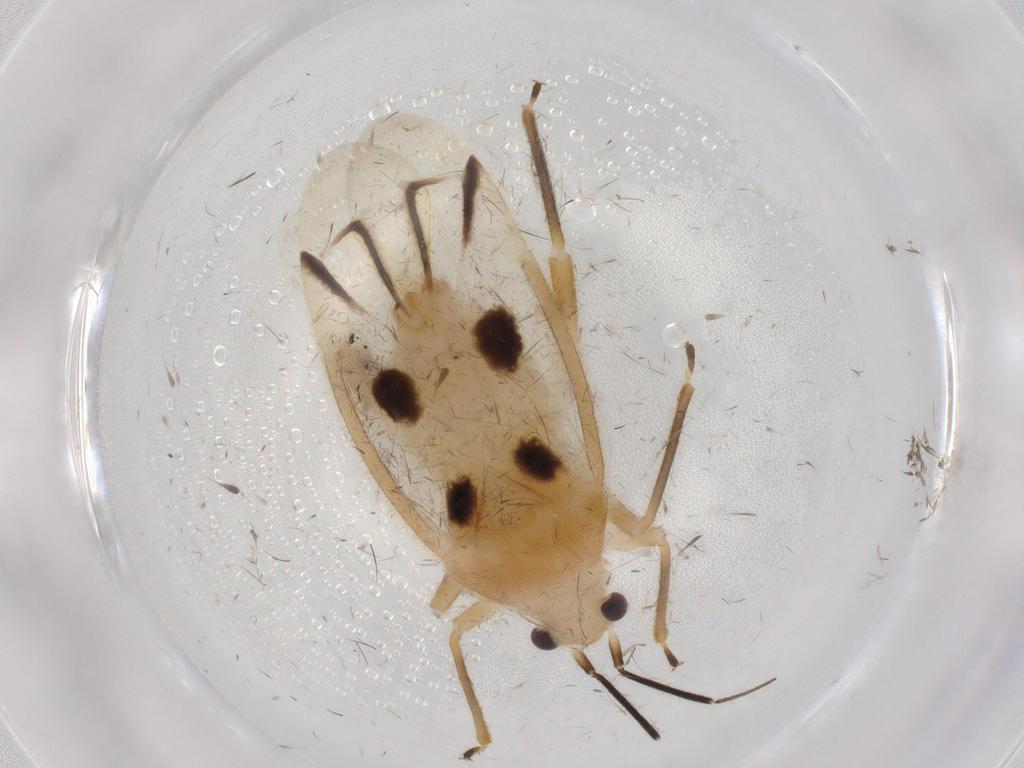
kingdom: Animalia
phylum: Arthropoda
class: Insecta
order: Hemiptera
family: Miridae
